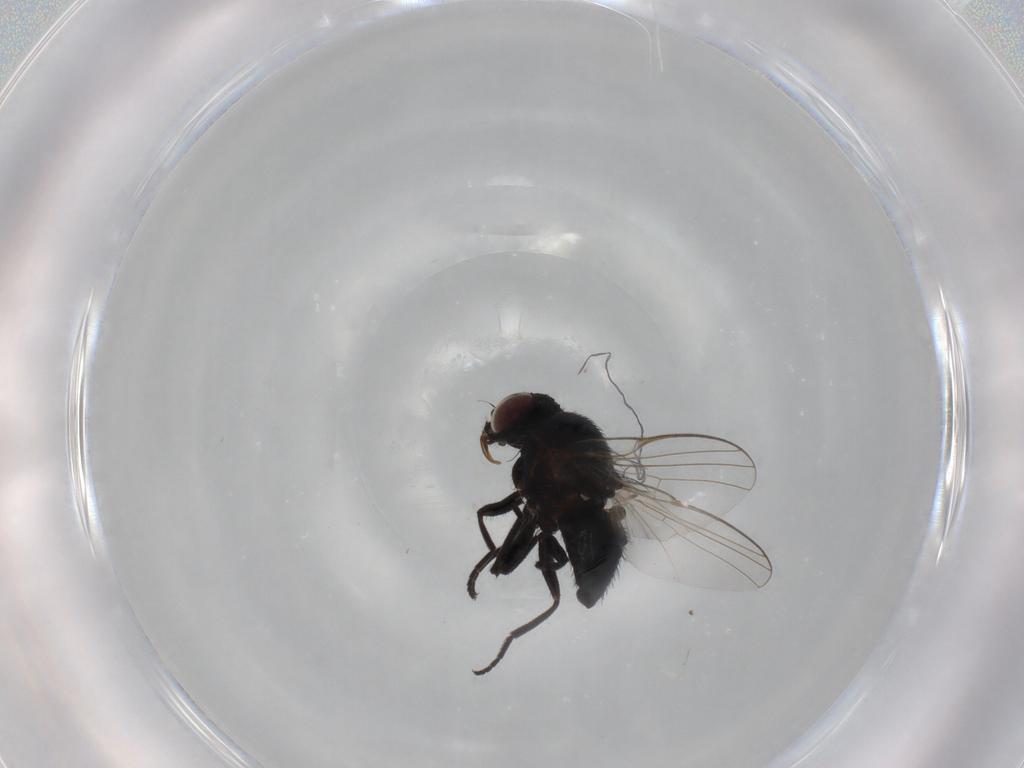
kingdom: Animalia
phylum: Arthropoda
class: Insecta
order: Diptera
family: Agromyzidae
